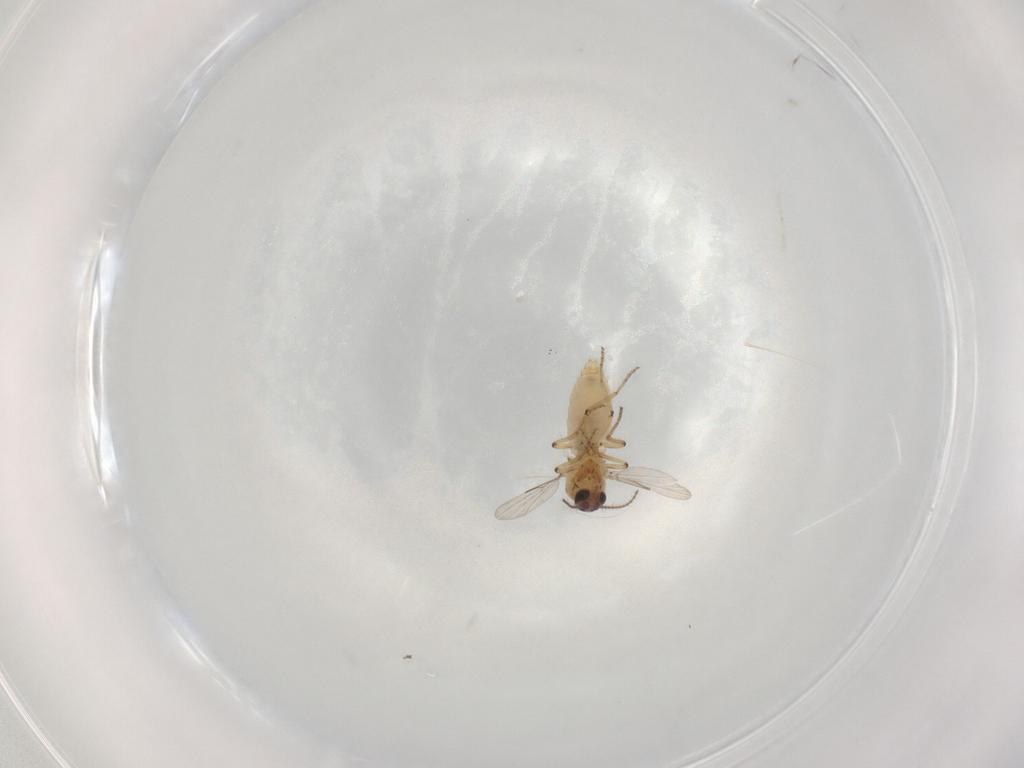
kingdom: Animalia
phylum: Arthropoda
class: Insecta
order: Diptera
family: Ceratopogonidae
